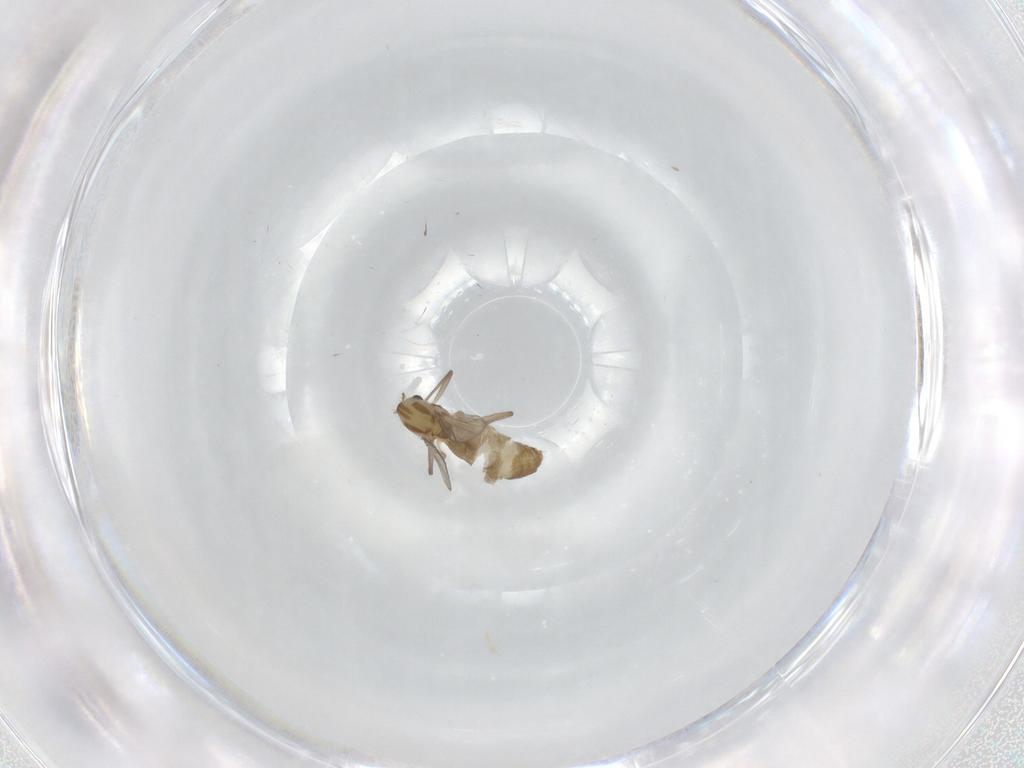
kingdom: Animalia
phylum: Arthropoda
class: Insecta
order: Diptera
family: Chironomidae
